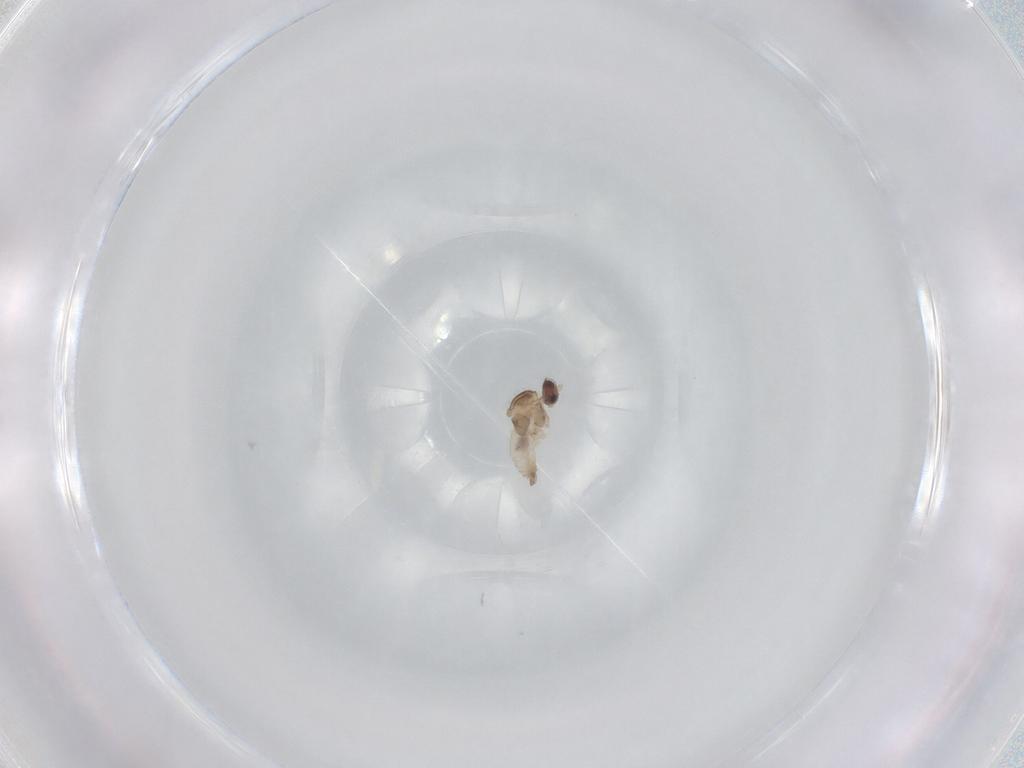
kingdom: Animalia
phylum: Arthropoda
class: Insecta
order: Diptera
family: Cecidomyiidae
